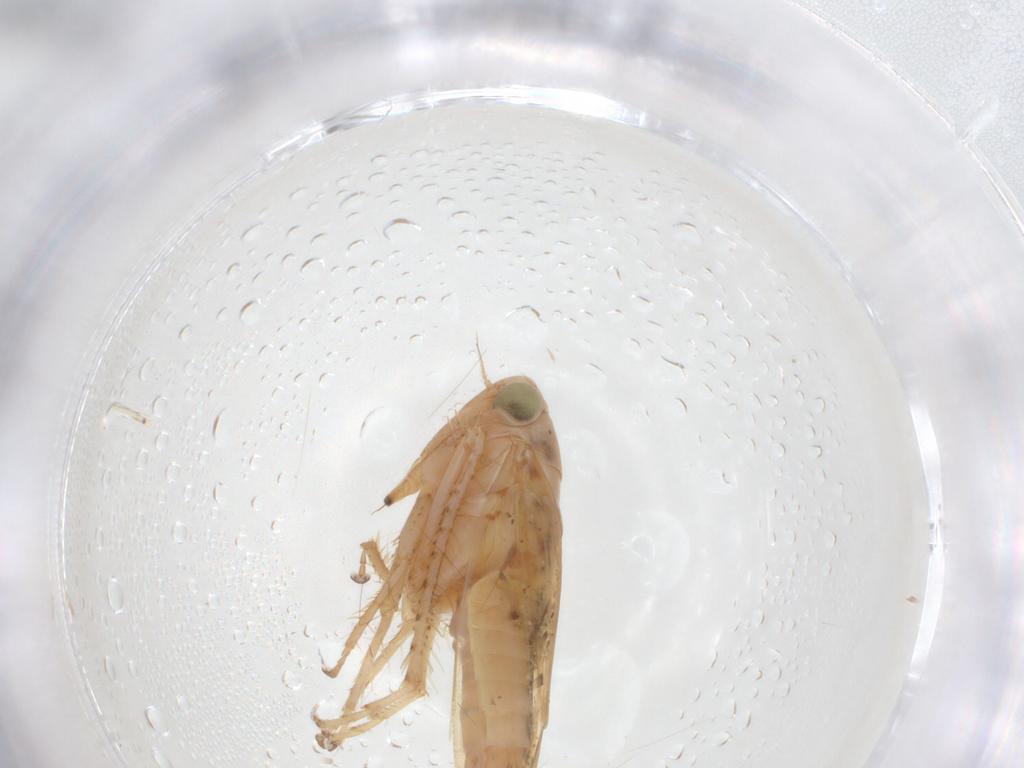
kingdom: Animalia
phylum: Arthropoda
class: Insecta
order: Hemiptera
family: Cicadellidae
